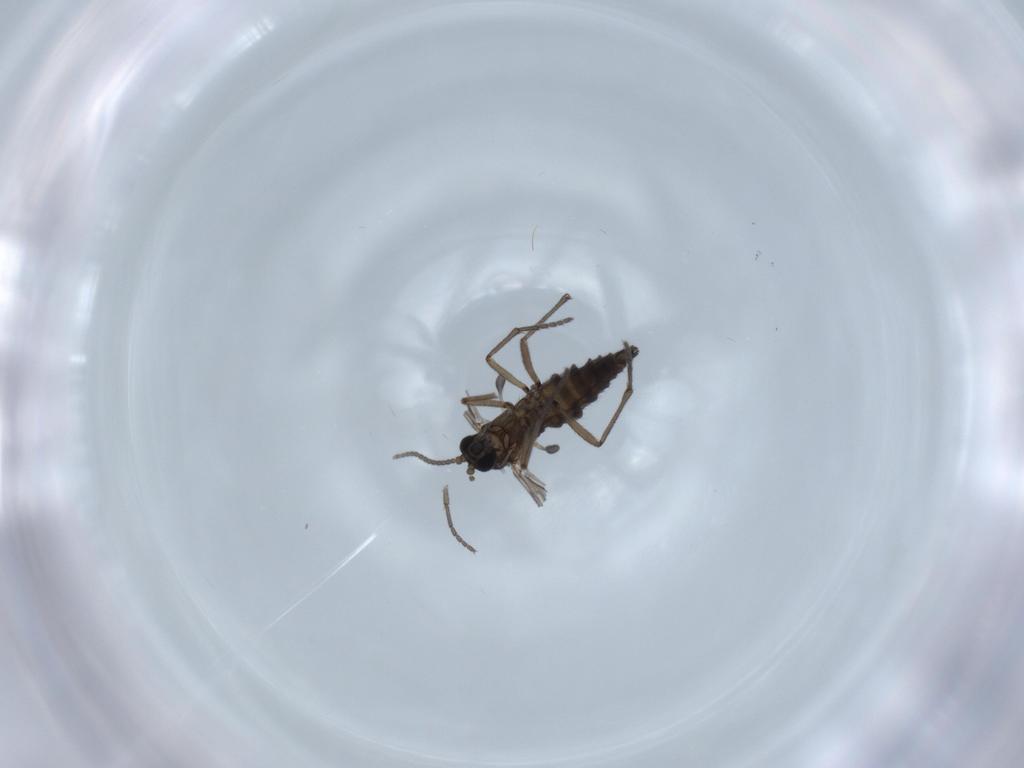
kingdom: Animalia
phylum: Arthropoda
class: Insecta
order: Diptera
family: Sciaridae
